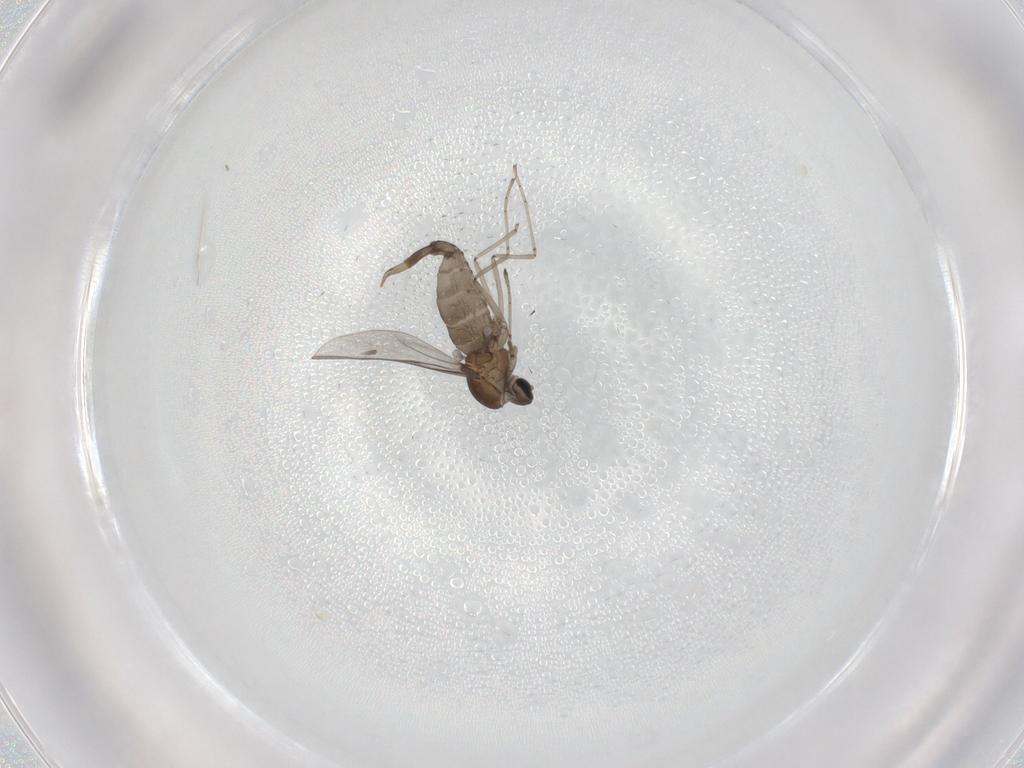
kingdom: Animalia
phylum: Arthropoda
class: Insecta
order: Diptera
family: Cecidomyiidae
